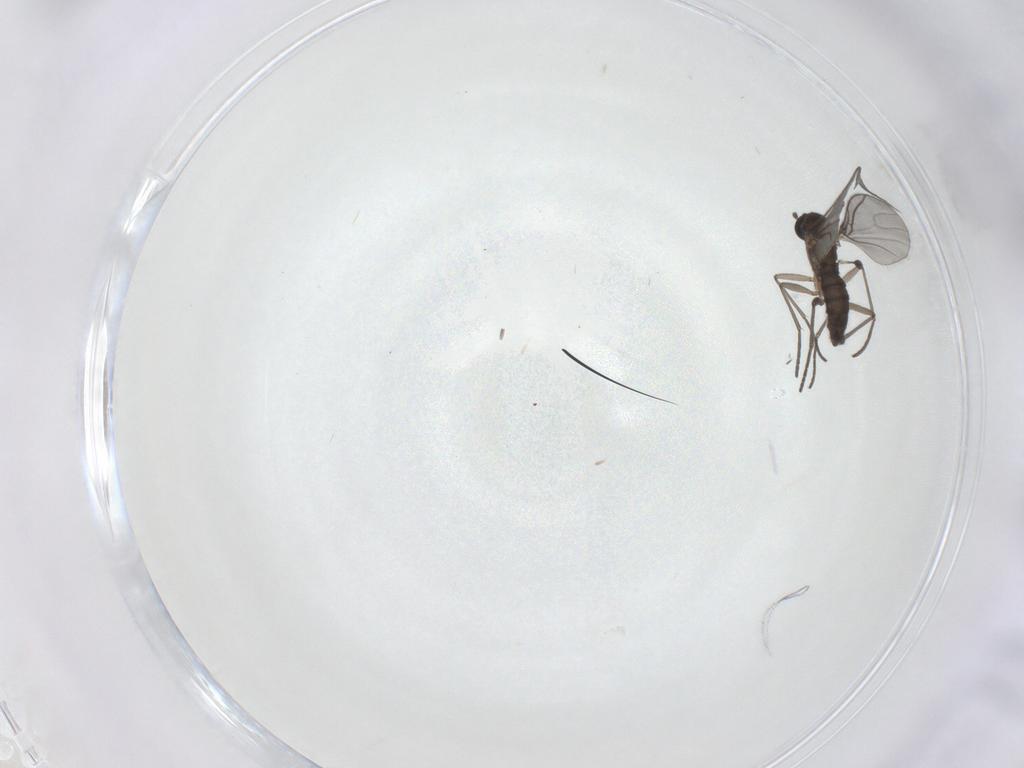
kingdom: Animalia
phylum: Arthropoda
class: Insecta
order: Diptera
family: Sciaridae
